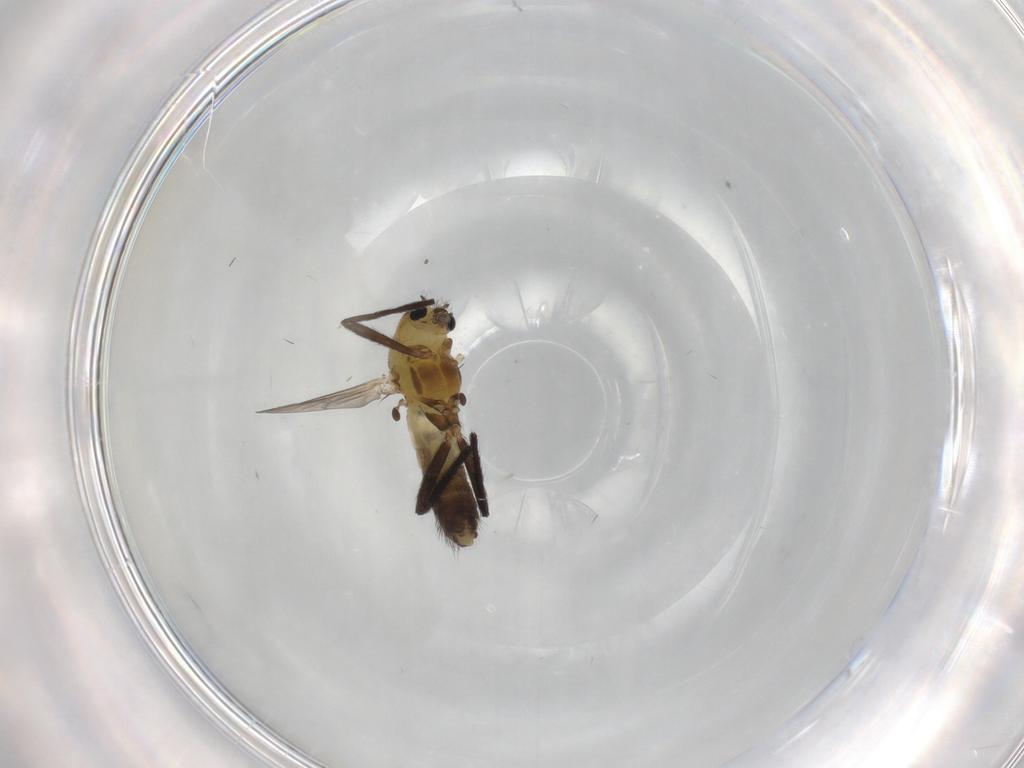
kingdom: Animalia
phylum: Arthropoda
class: Insecta
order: Diptera
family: Chironomidae
